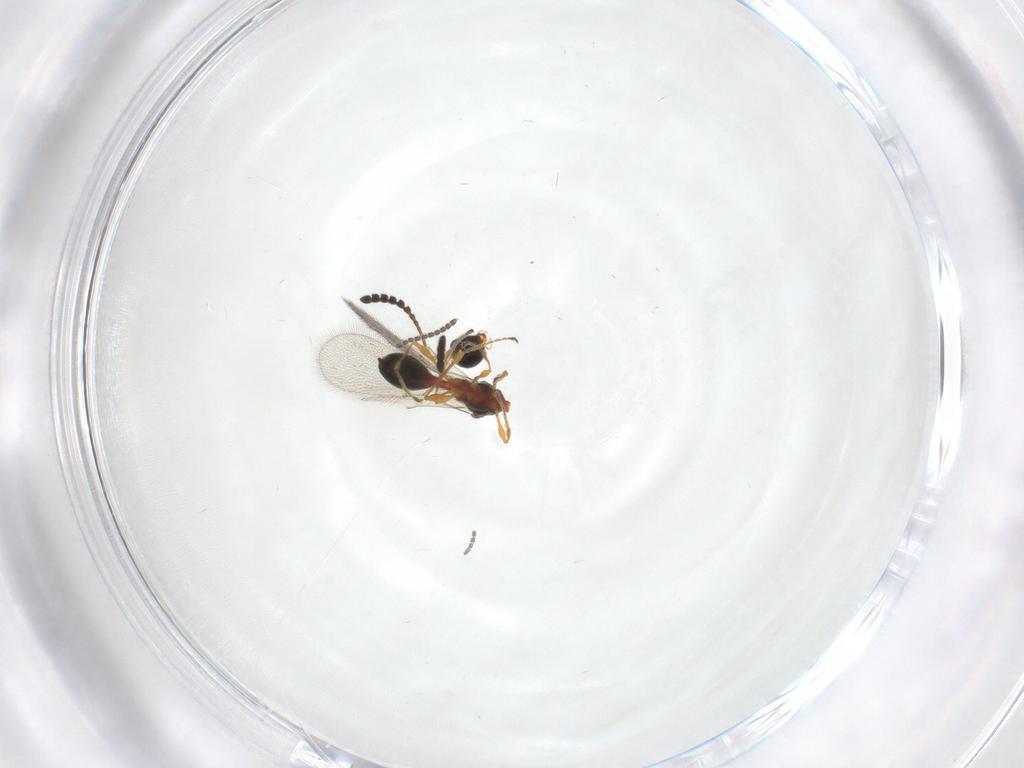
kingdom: Animalia
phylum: Arthropoda
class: Insecta
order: Hymenoptera
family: Diapriidae
